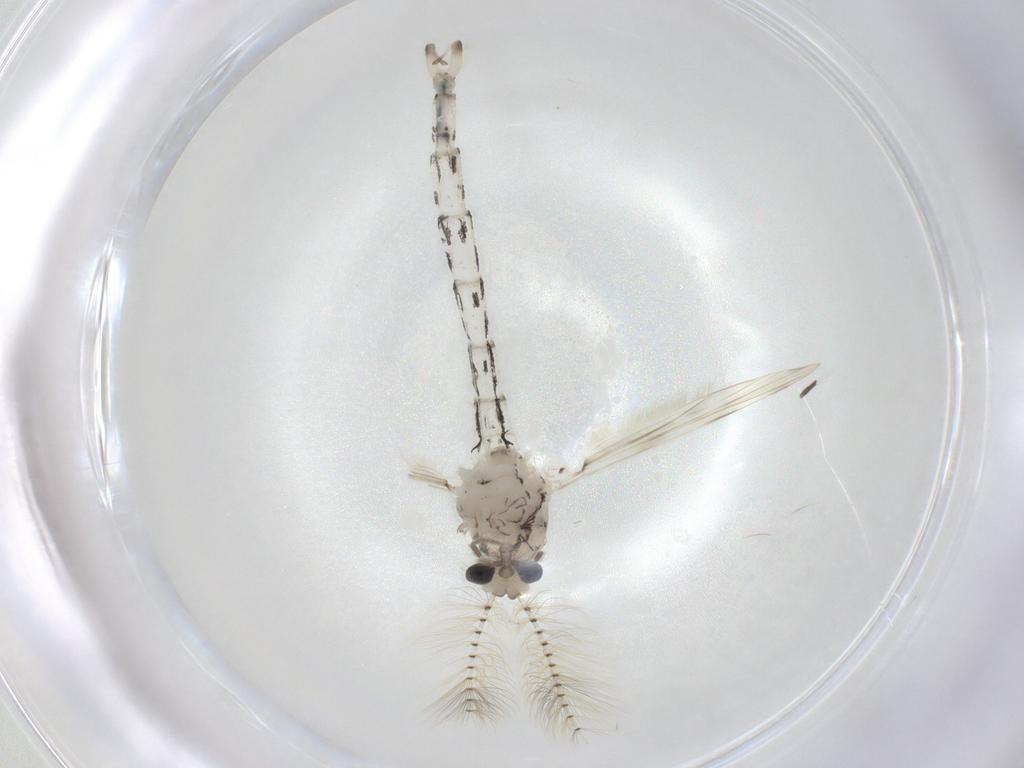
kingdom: Animalia
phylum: Arthropoda
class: Insecta
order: Diptera
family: Chaoboridae
